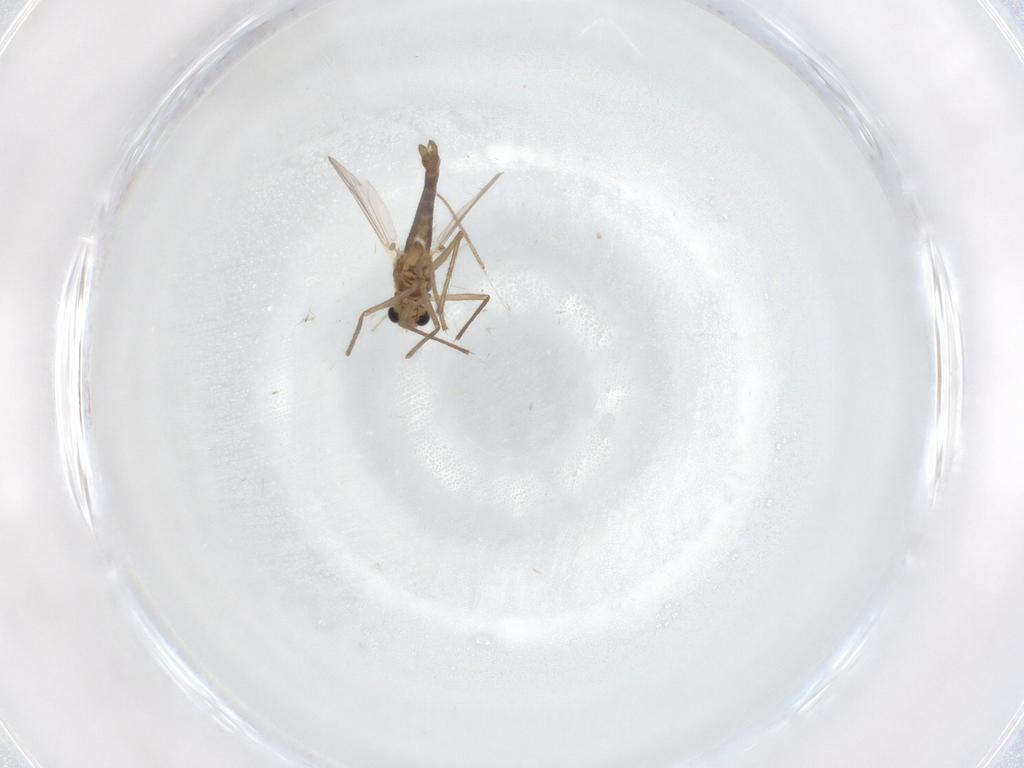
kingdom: Animalia
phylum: Arthropoda
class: Insecta
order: Diptera
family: Chironomidae
